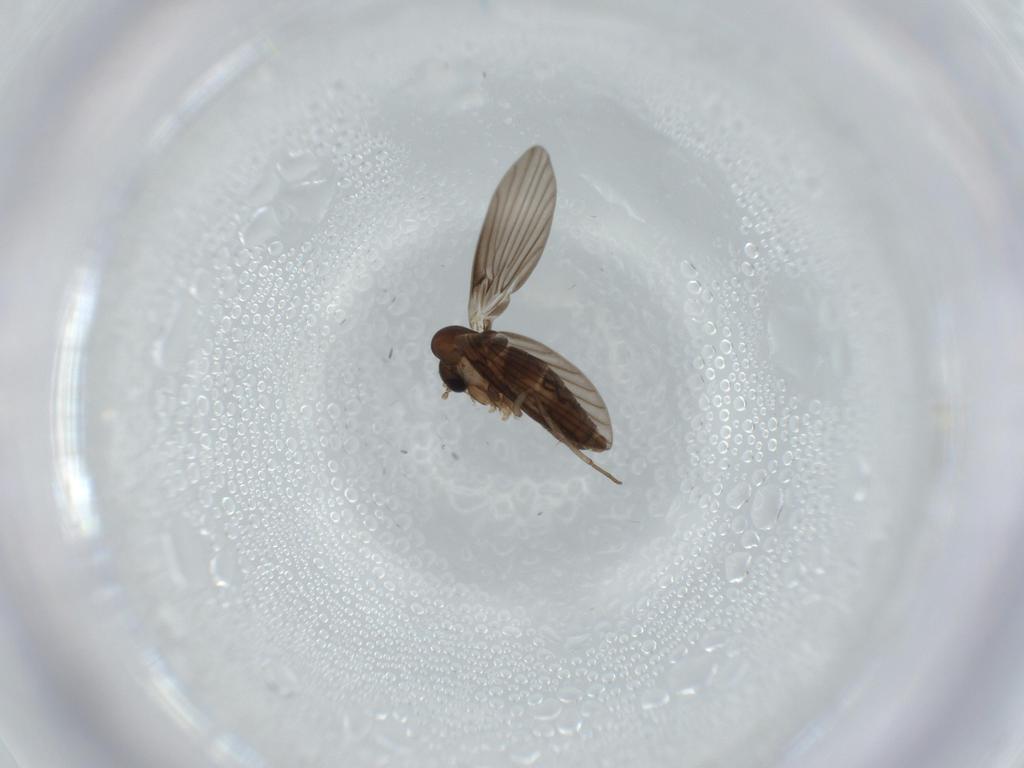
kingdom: Animalia
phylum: Arthropoda
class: Insecta
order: Diptera
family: Psychodidae
